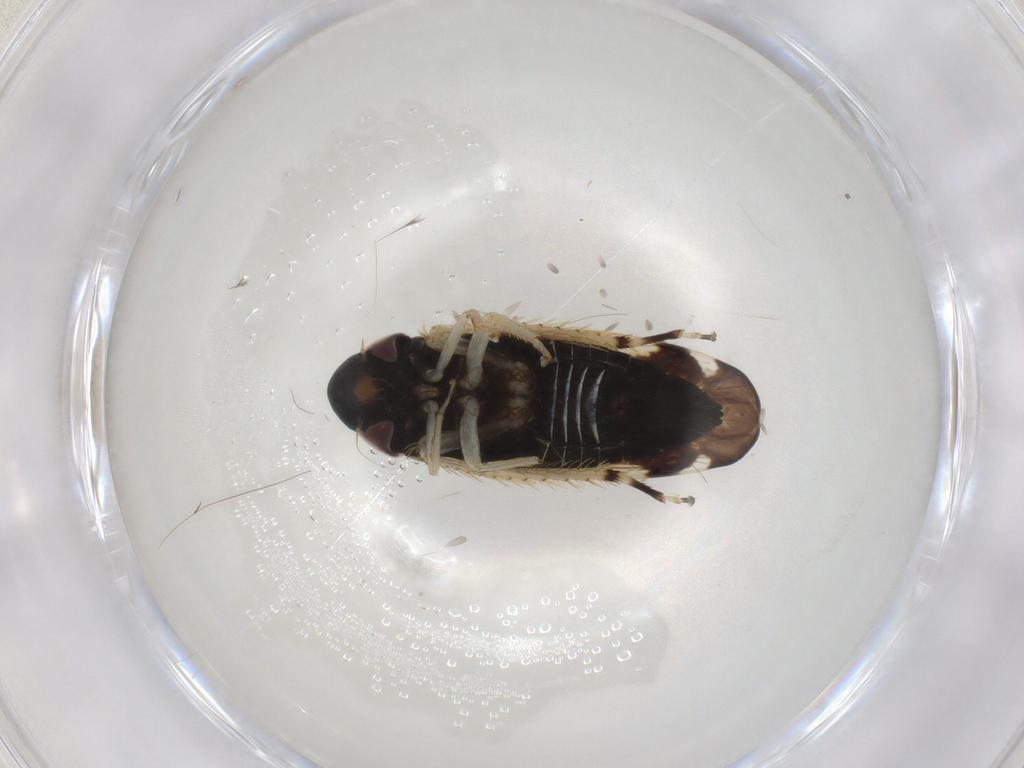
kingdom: Animalia
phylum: Arthropoda
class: Insecta
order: Hemiptera
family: Cicadellidae
